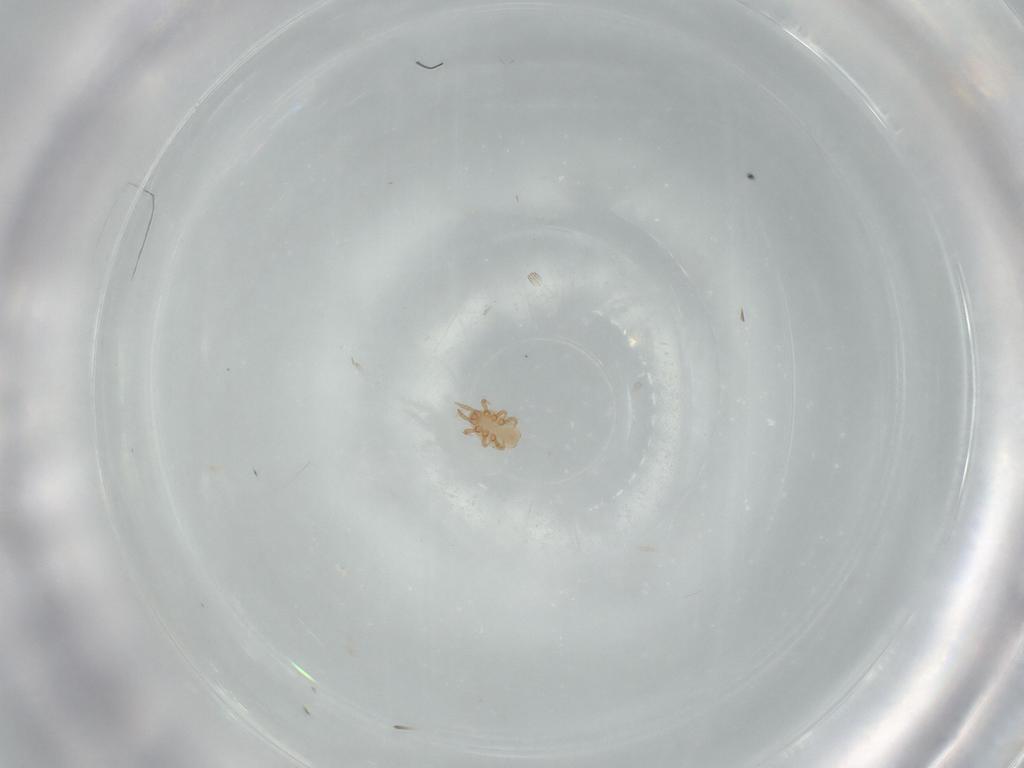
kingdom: Animalia
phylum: Arthropoda
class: Arachnida
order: Mesostigmata
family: Dinychidae
